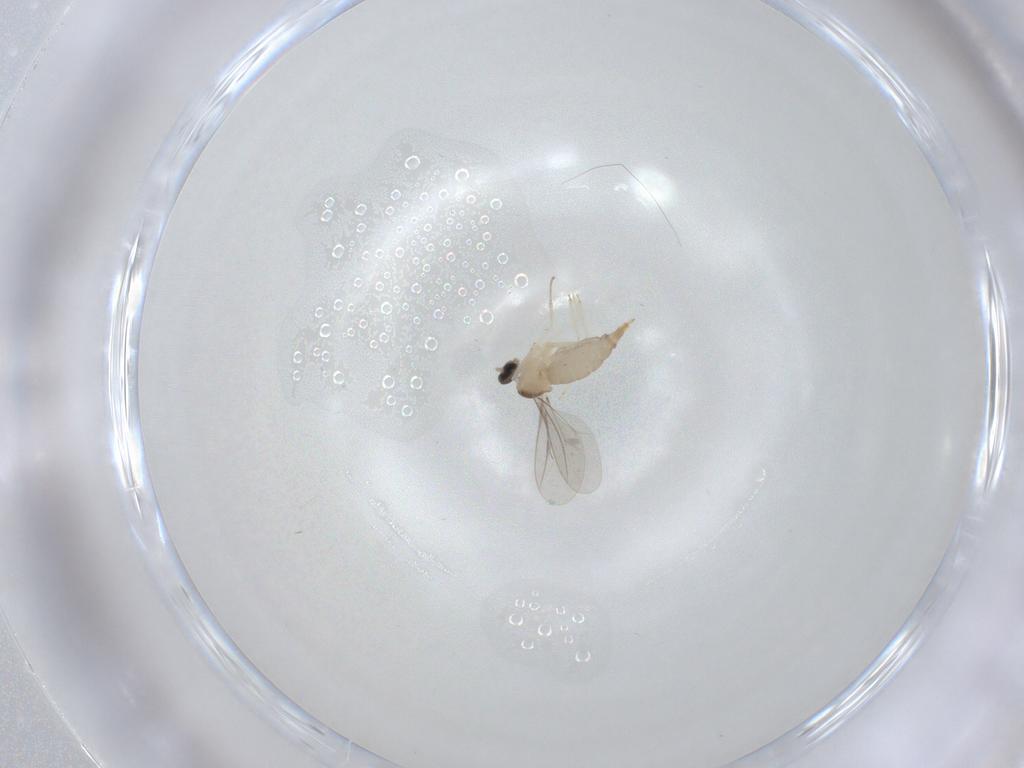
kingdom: Animalia
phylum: Arthropoda
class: Insecta
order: Diptera
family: Cecidomyiidae
